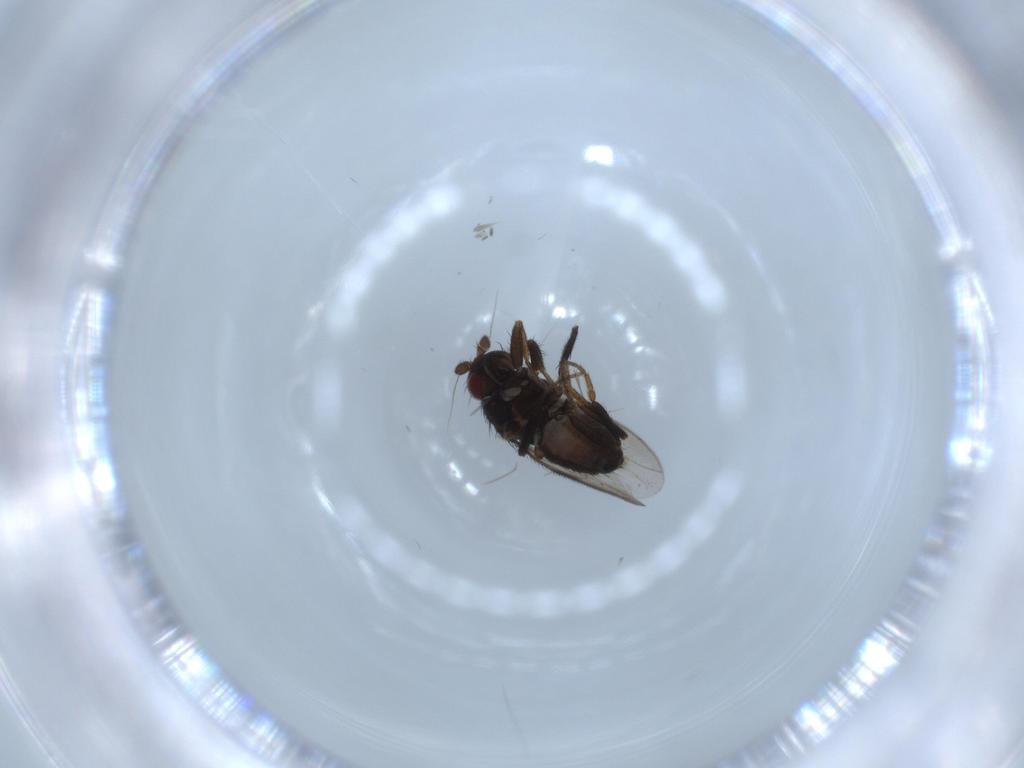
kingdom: Animalia
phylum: Arthropoda
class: Insecta
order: Diptera
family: Sphaeroceridae
